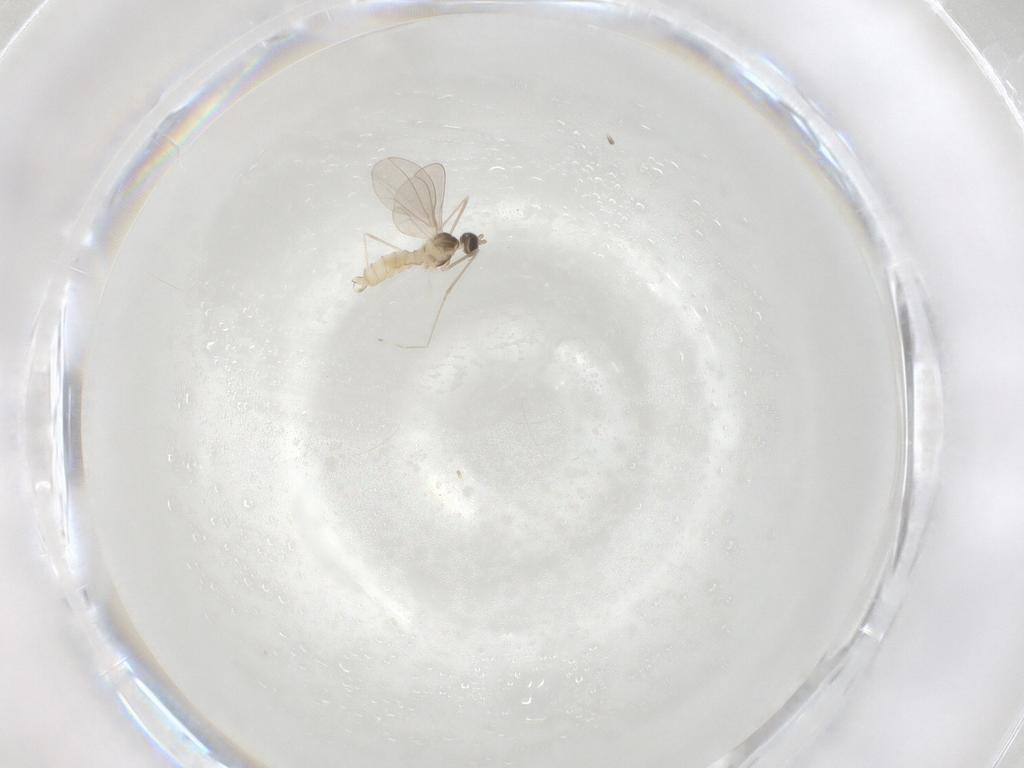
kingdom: Animalia
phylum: Arthropoda
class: Insecta
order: Diptera
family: Cecidomyiidae
